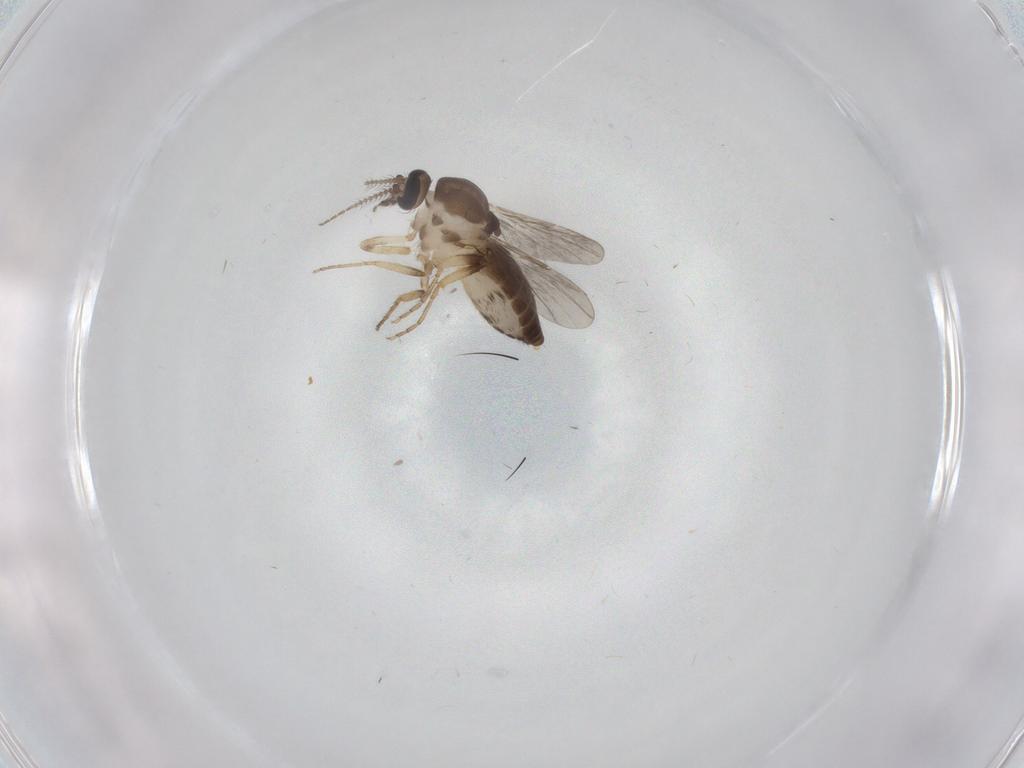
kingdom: Animalia
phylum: Arthropoda
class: Insecta
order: Diptera
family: Ceratopogonidae
